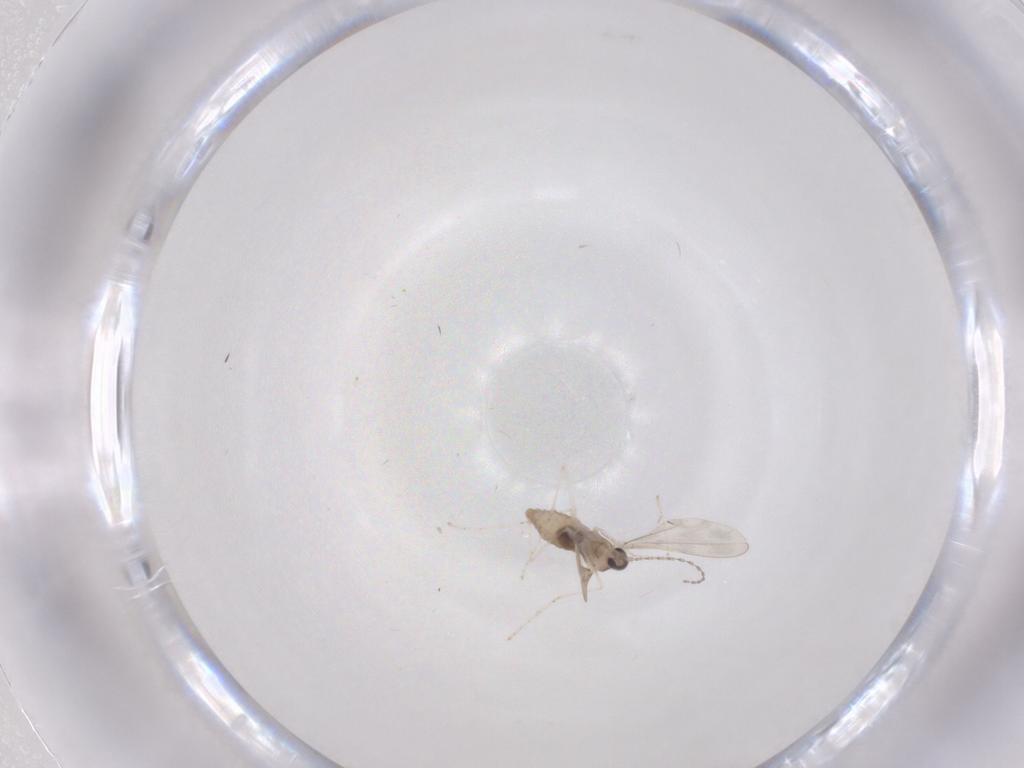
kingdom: Animalia
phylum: Arthropoda
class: Insecta
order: Diptera
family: Cecidomyiidae
